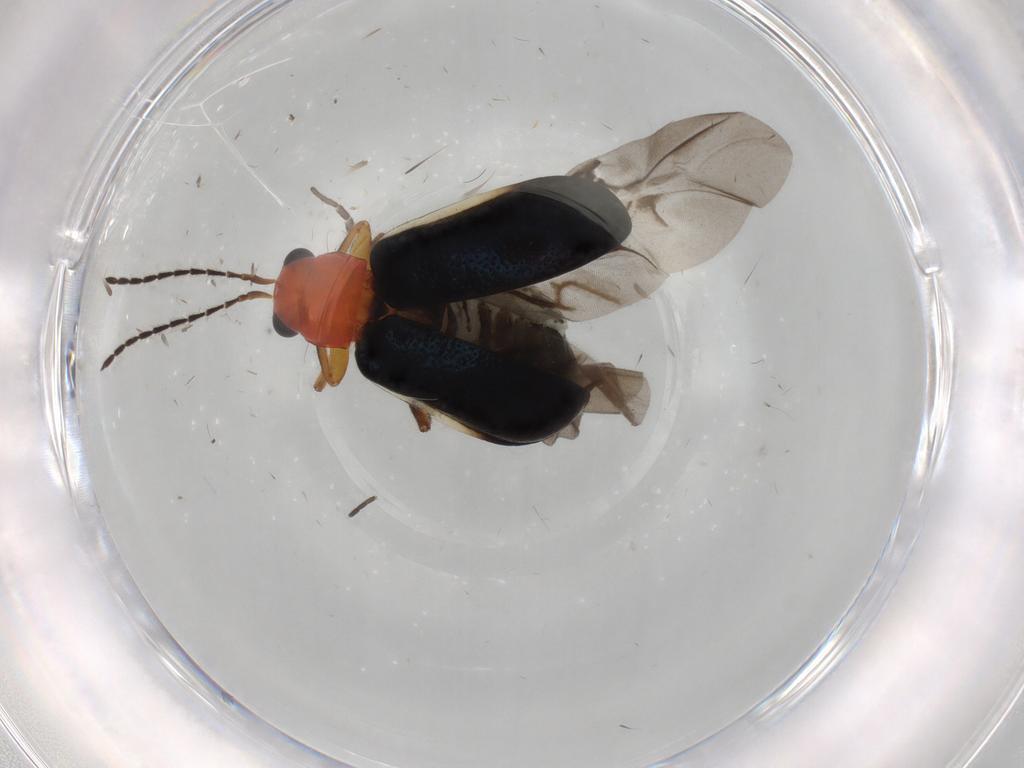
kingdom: Animalia
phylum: Arthropoda
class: Insecta
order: Coleoptera
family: Chrysomelidae
